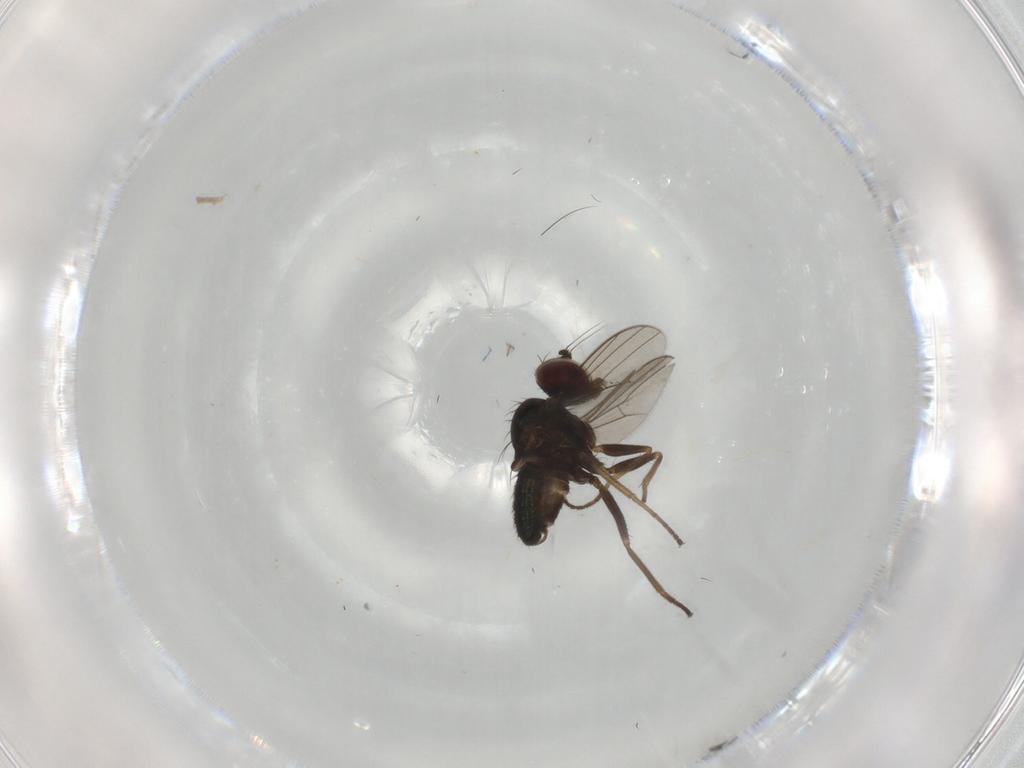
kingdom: Animalia
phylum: Arthropoda
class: Insecta
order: Diptera
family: Dolichopodidae
